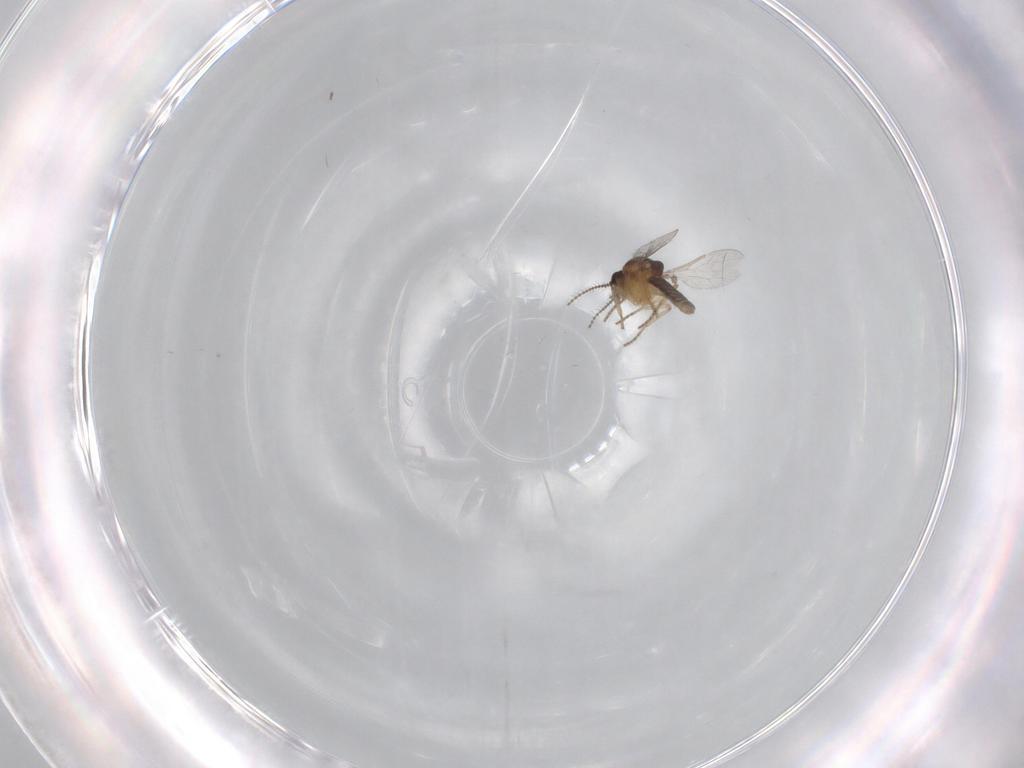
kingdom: Animalia
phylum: Arthropoda
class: Insecta
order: Diptera
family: Ceratopogonidae
